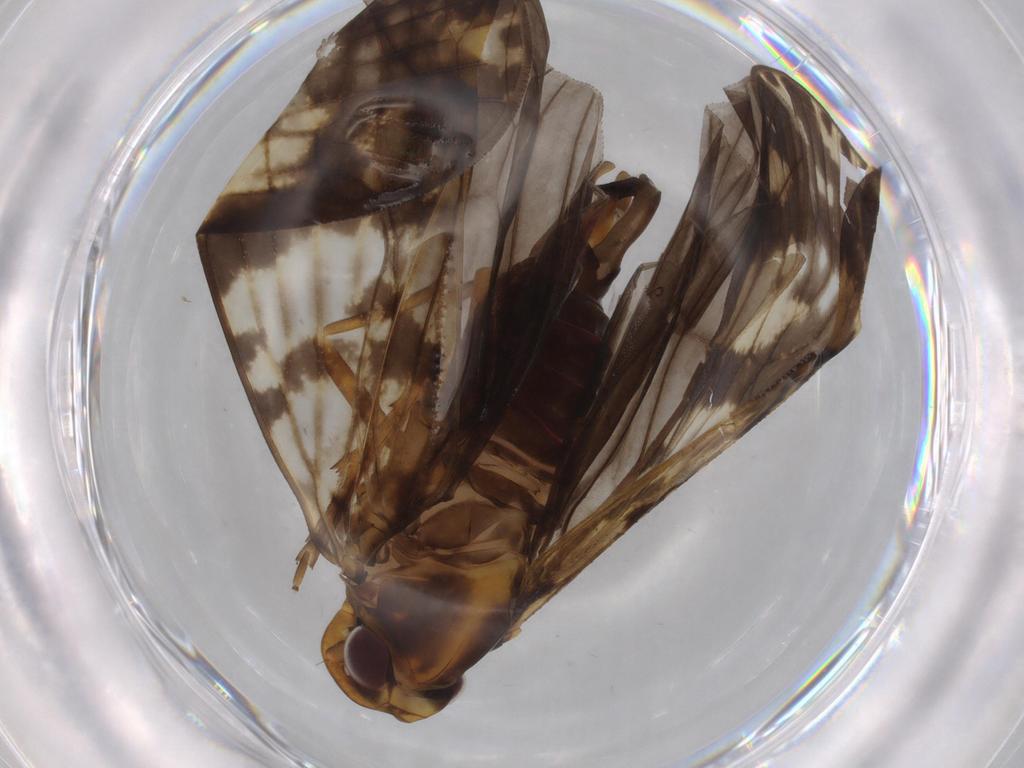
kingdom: Animalia
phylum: Arthropoda
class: Insecta
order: Hemiptera
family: Cixiidae
